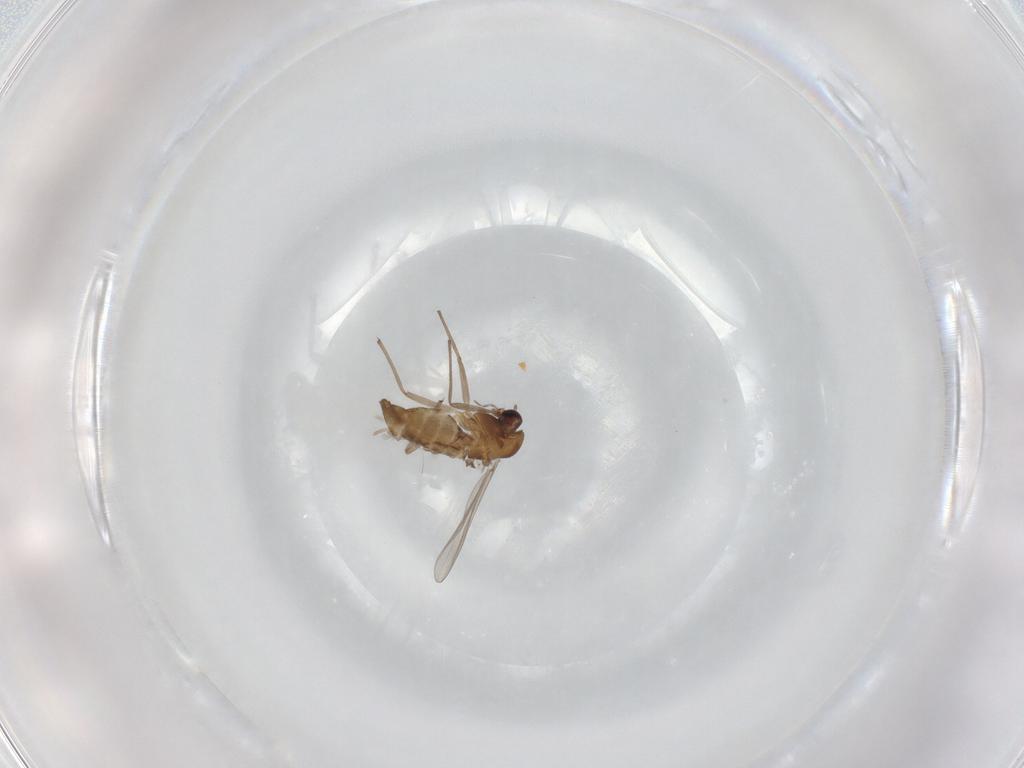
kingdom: Animalia
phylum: Arthropoda
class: Insecta
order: Diptera
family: Chironomidae
